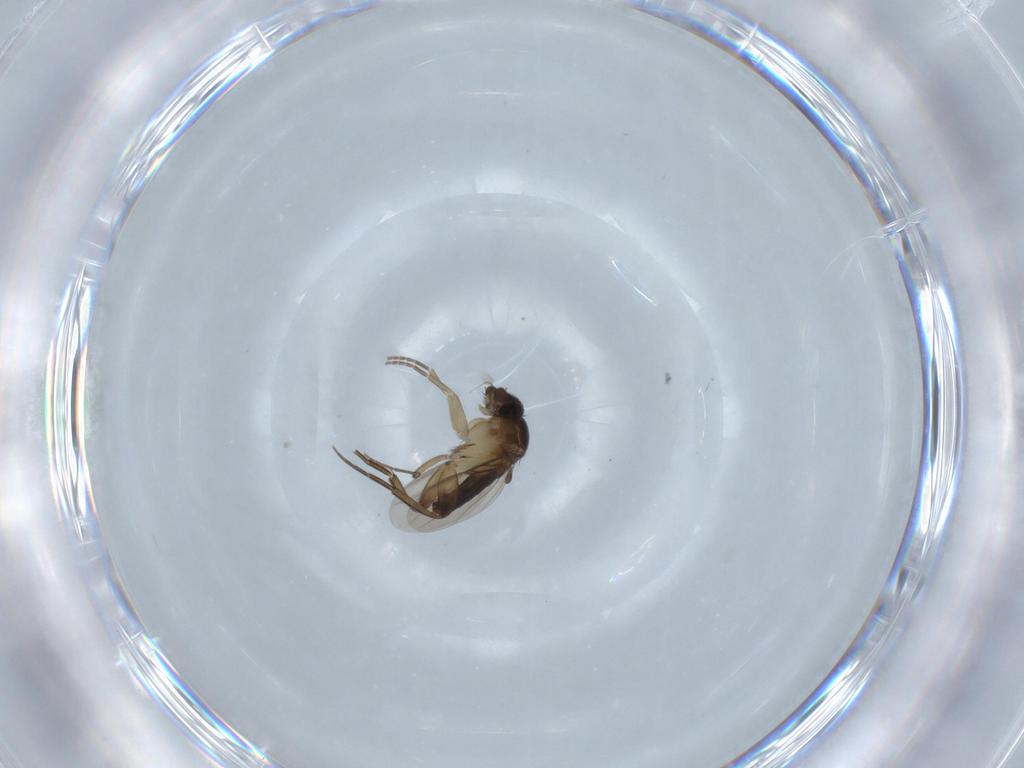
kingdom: Animalia
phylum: Arthropoda
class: Insecta
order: Diptera
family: Phoridae
